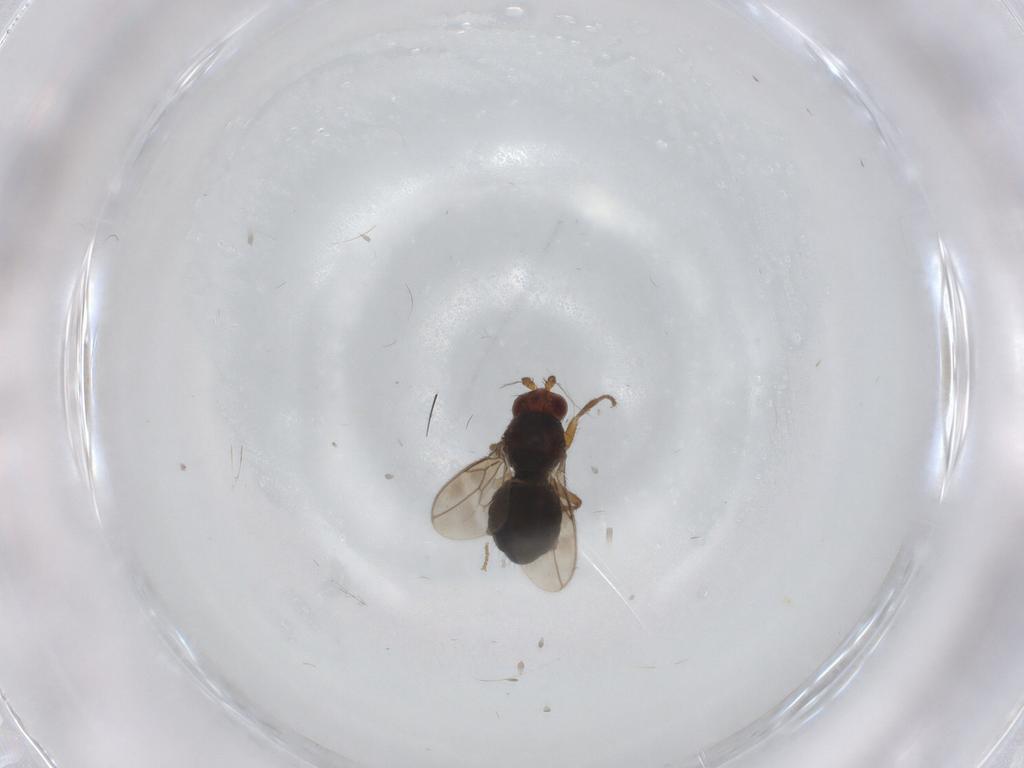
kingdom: Animalia
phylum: Arthropoda
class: Insecta
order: Diptera
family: Sphaeroceridae
